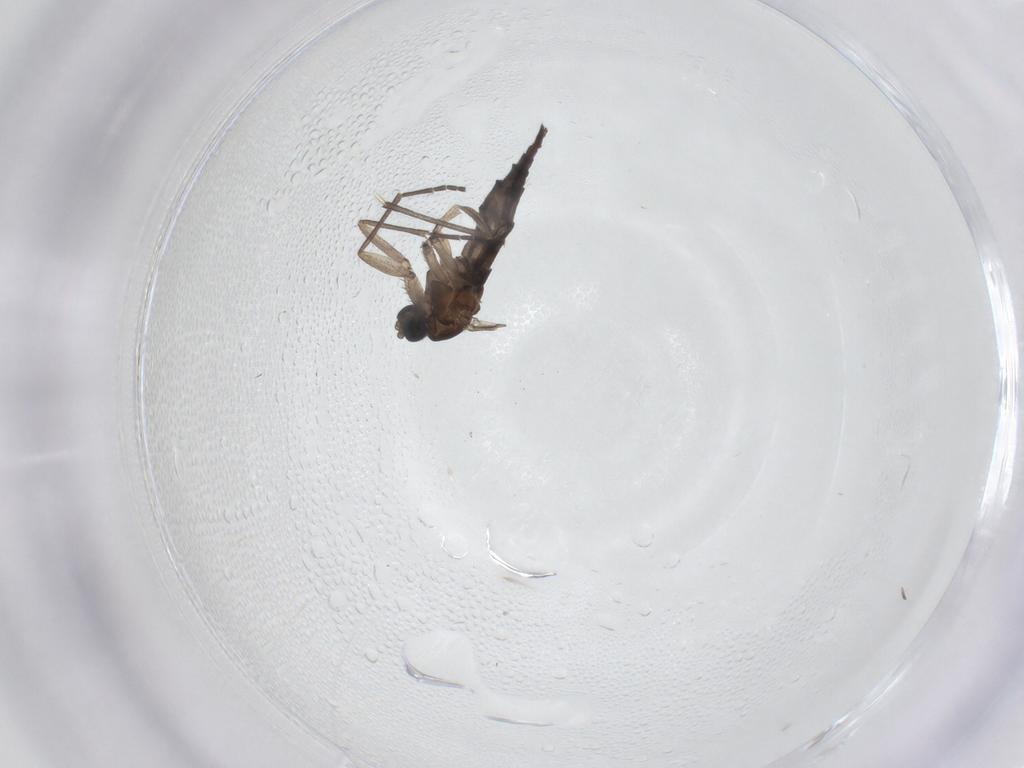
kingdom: Animalia
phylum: Arthropoda
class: Insecta
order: Diptera
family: Sciaridae
